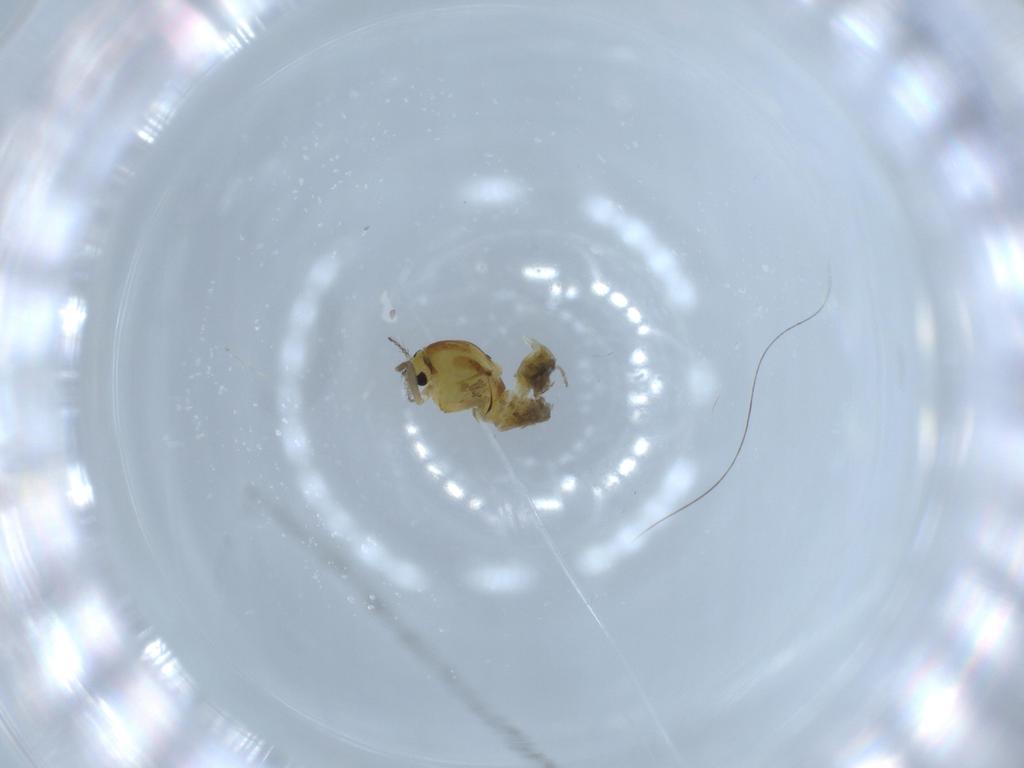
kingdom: Animalia
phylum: Arthropoda
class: Insecta
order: Diptera
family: Chironomidae
